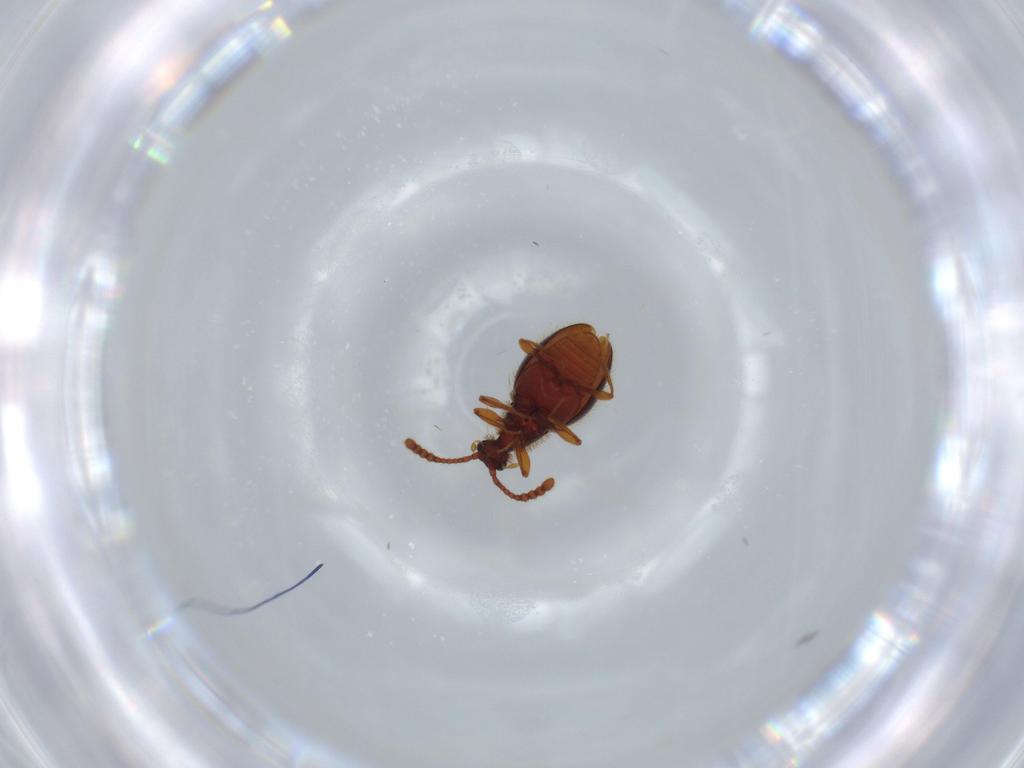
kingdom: Animalia
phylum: Arthropoda
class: Insecta
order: Coleoptera
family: Staphylinidae
